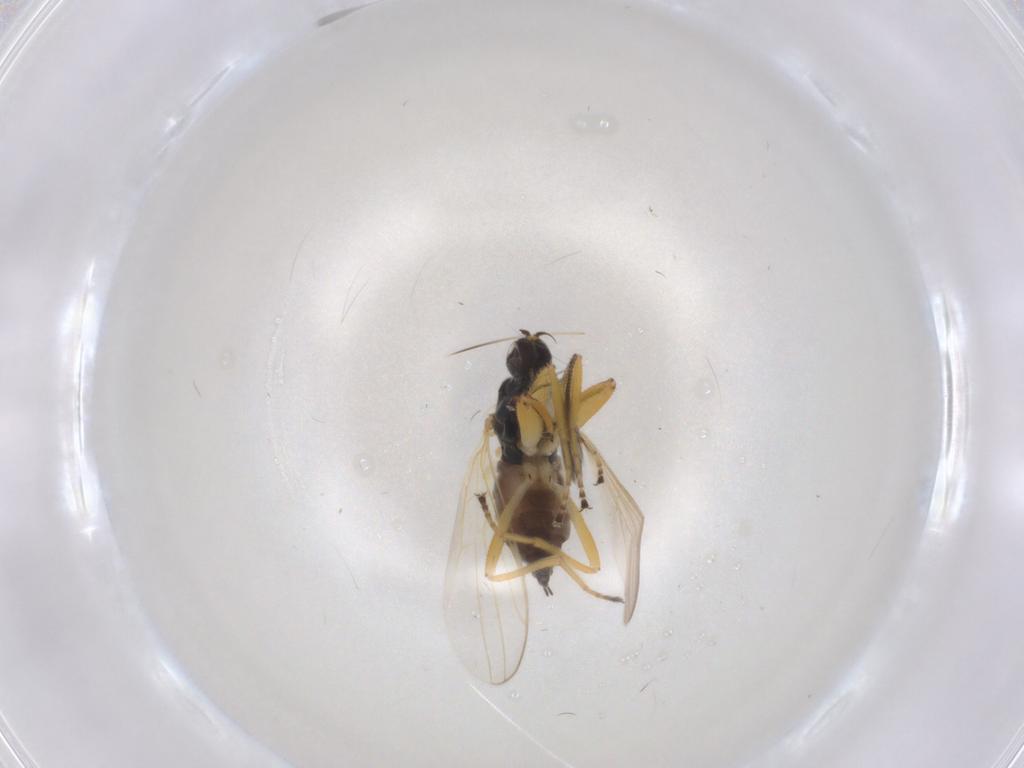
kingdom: Animalia
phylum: Arthropoda
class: Insecta
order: Diptera
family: Hybotidae
